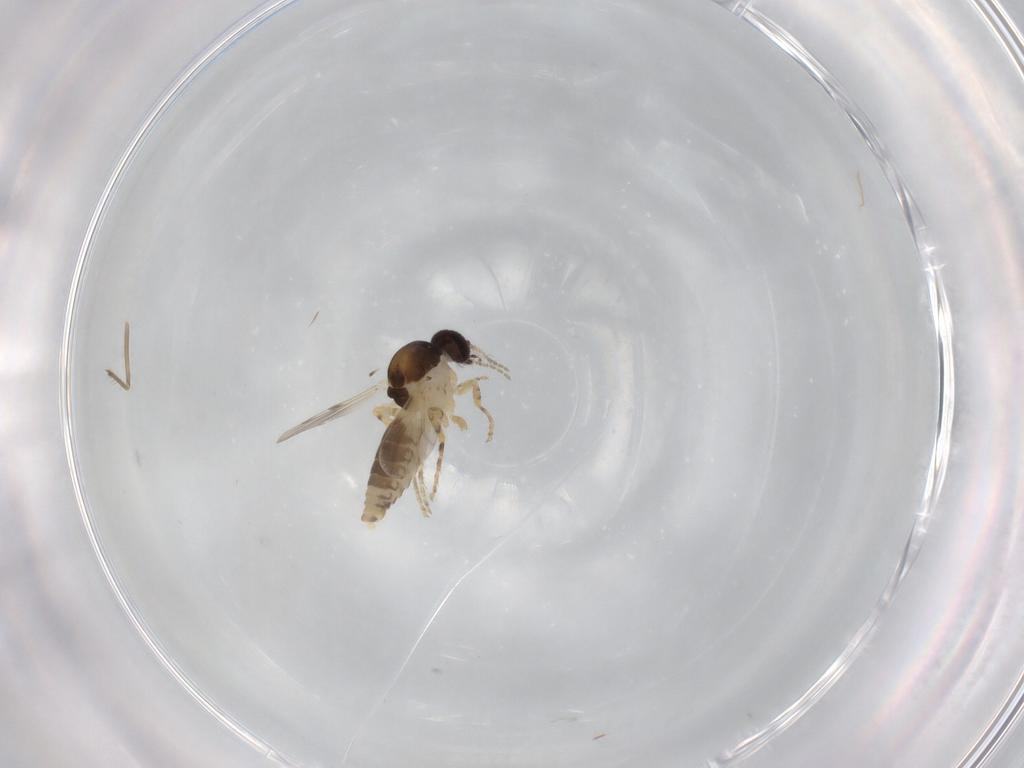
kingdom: Animalia
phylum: Arthropoda
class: Insecta
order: Diptera
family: Ceratopogonidae
